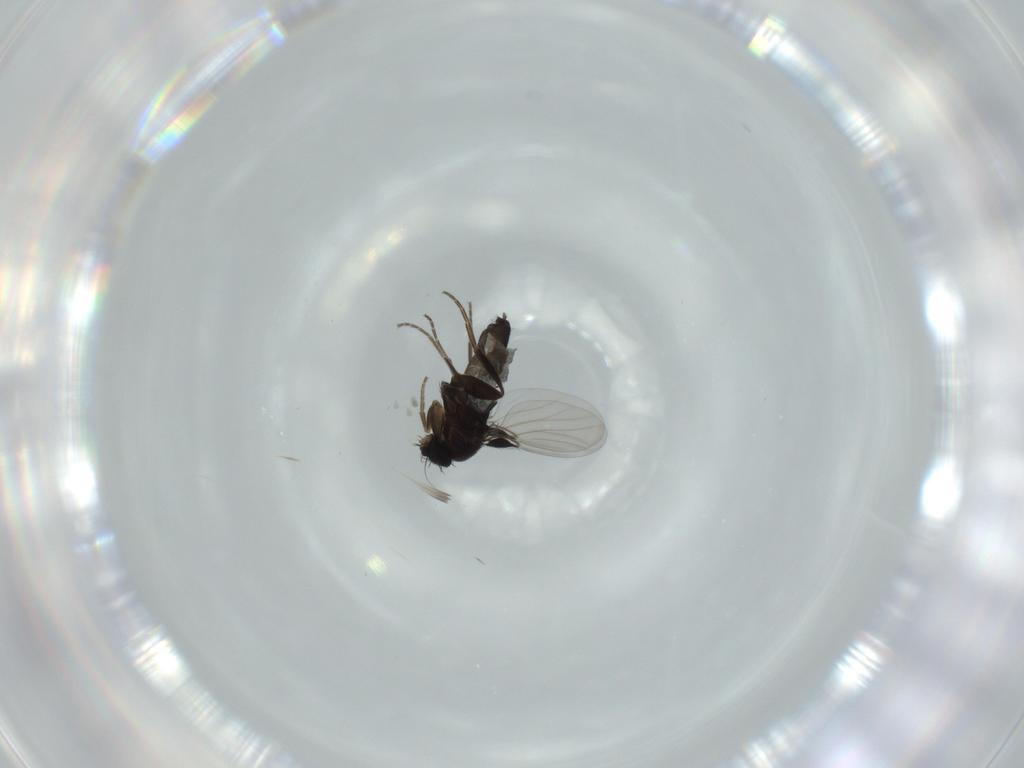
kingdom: Animalia
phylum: Arthropoda
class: Insecta
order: Diptera
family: Phoridae
